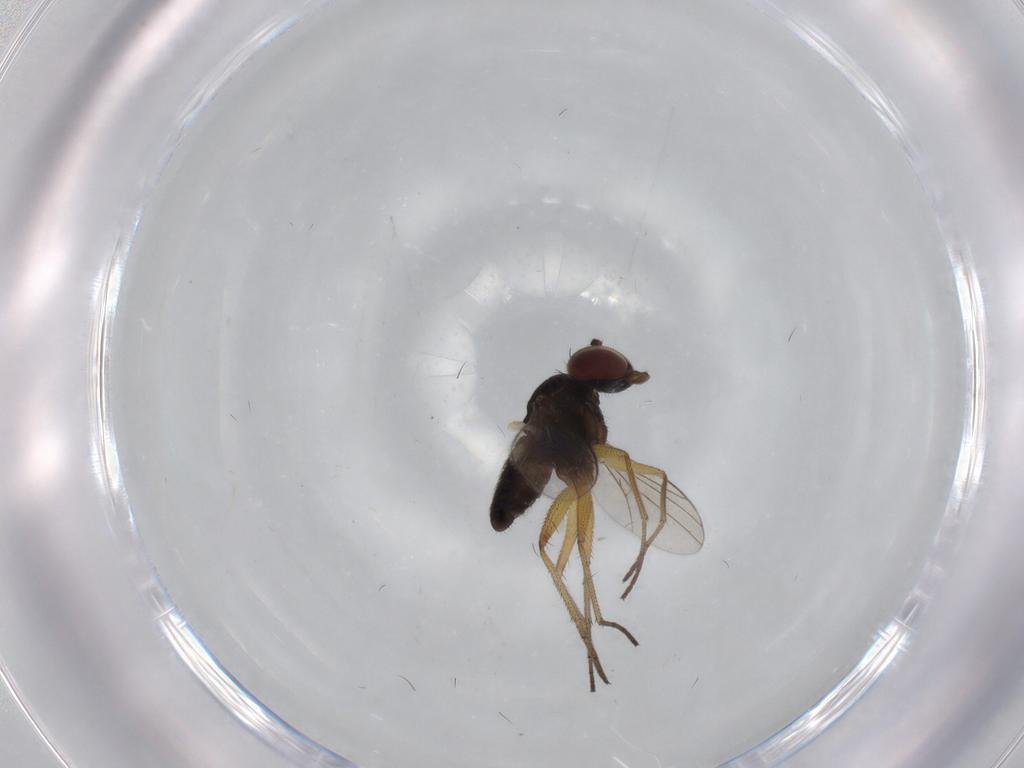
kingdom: Animalia
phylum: Arthropoda
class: Insecta
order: Diptera
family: Dolichopodidae
